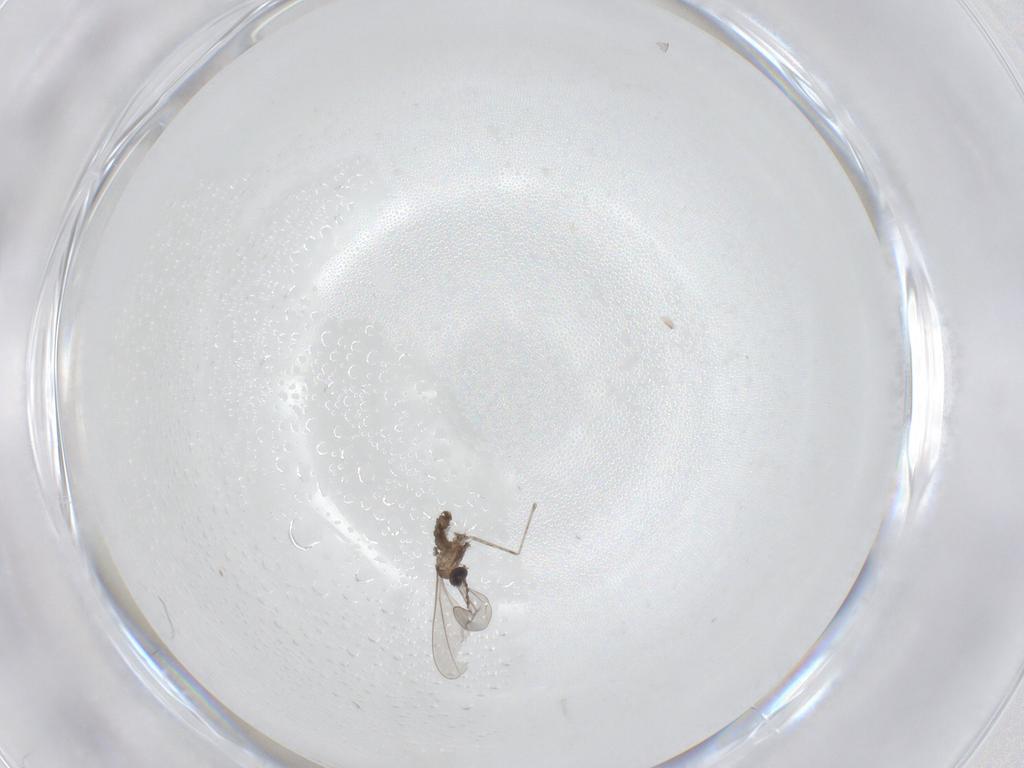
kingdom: Animalia
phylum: Arthropoda
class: Insecta
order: Diptera
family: Cecidomyiidae
